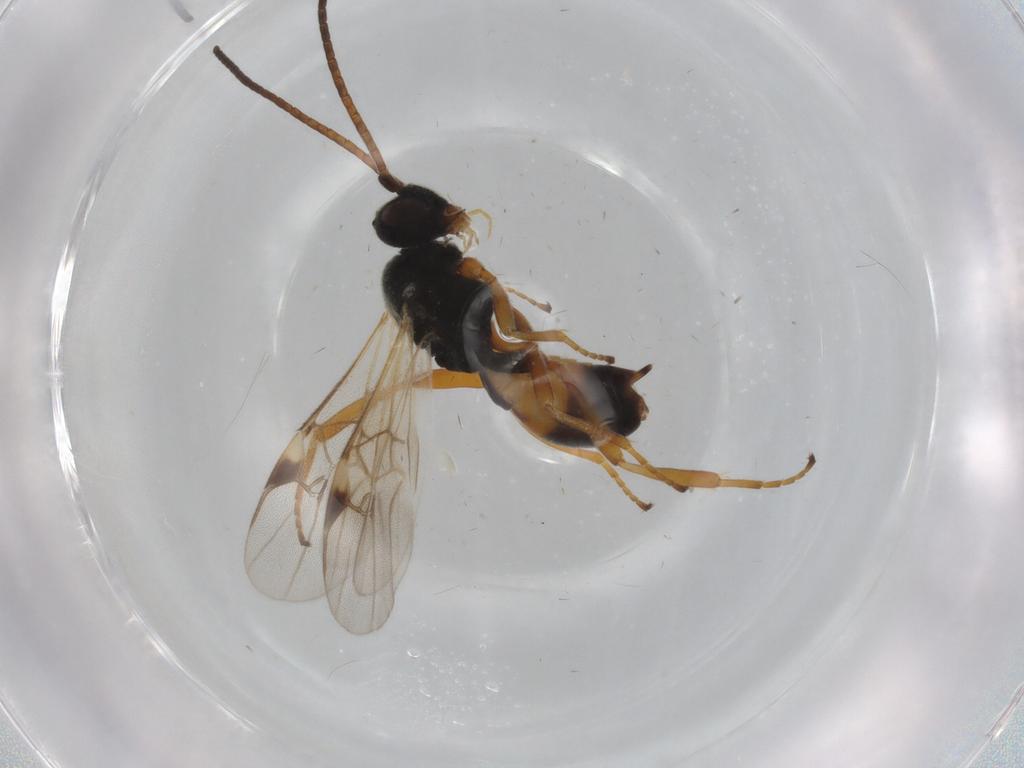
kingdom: Animalia
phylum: Arthropoda
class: Insecta
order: Hymenoptera
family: Braconidae
